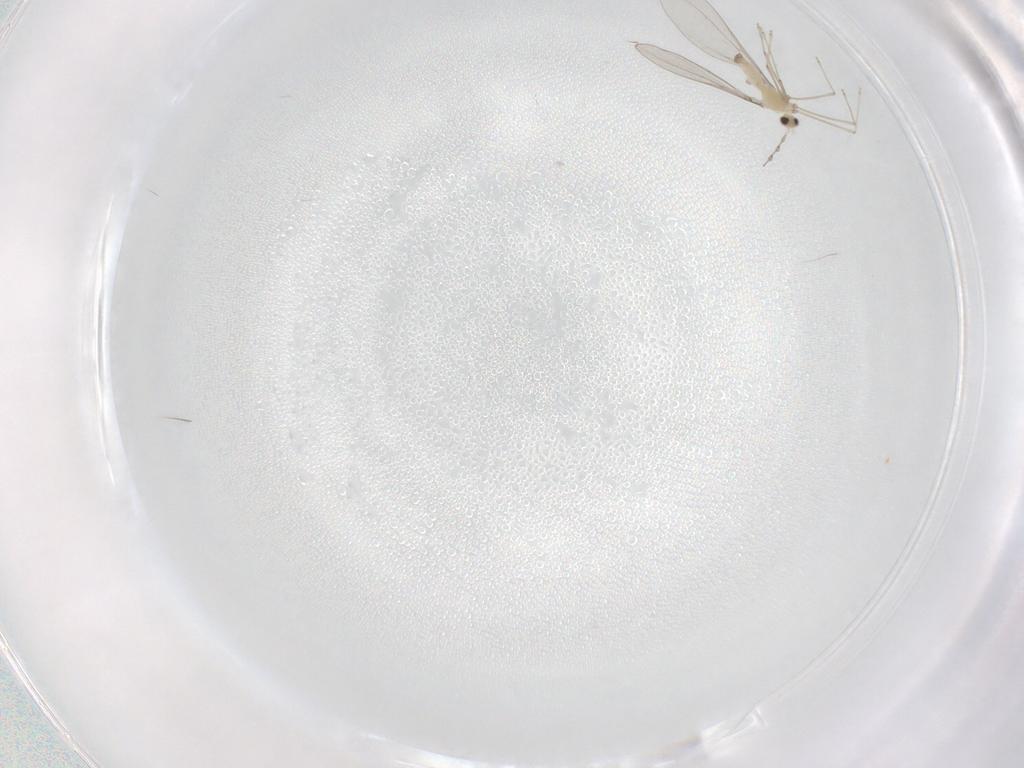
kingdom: Animalia
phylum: Arthropoda
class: Insecta
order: Diptera
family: Cecidomyiidae
